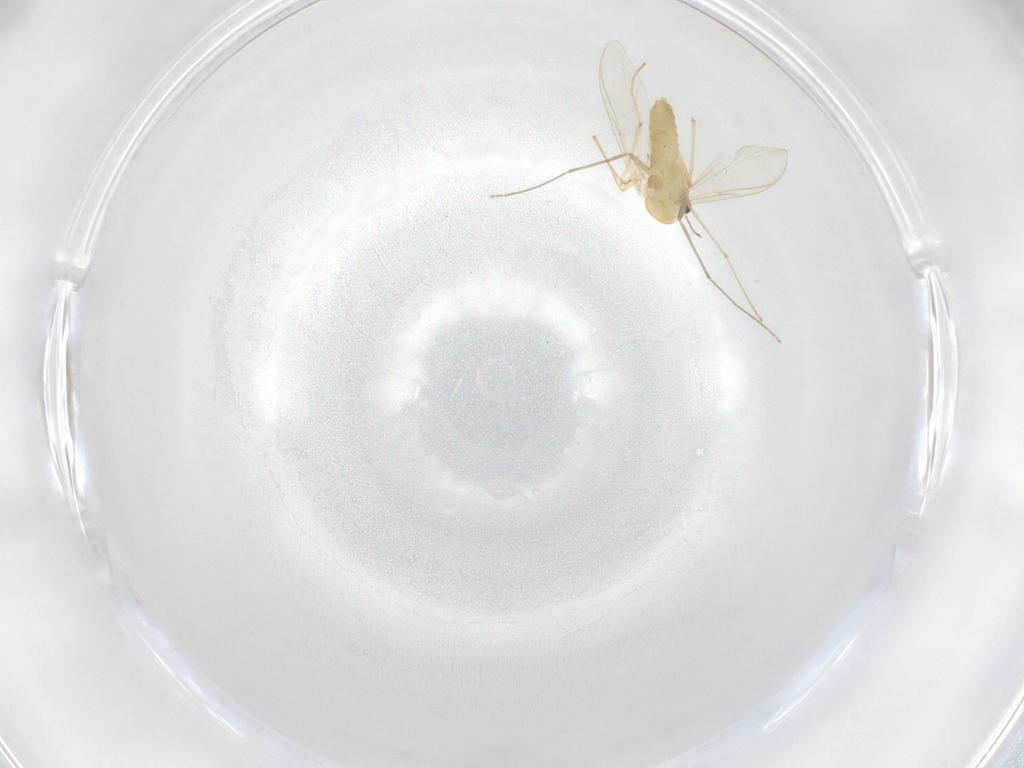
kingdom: Animalia
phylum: Arthropoda
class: Insecta
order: Diptera
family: Chironomidae
